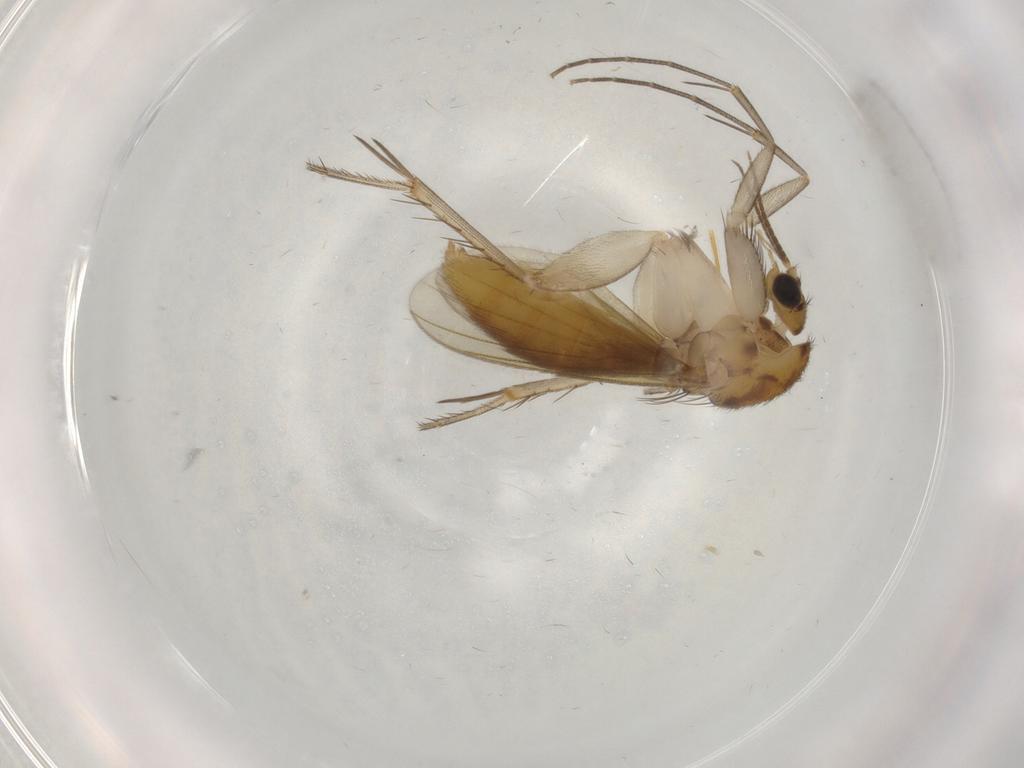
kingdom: Animalia
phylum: Arthropoda
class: Insecta
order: Diptera
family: Mycetophilidae
